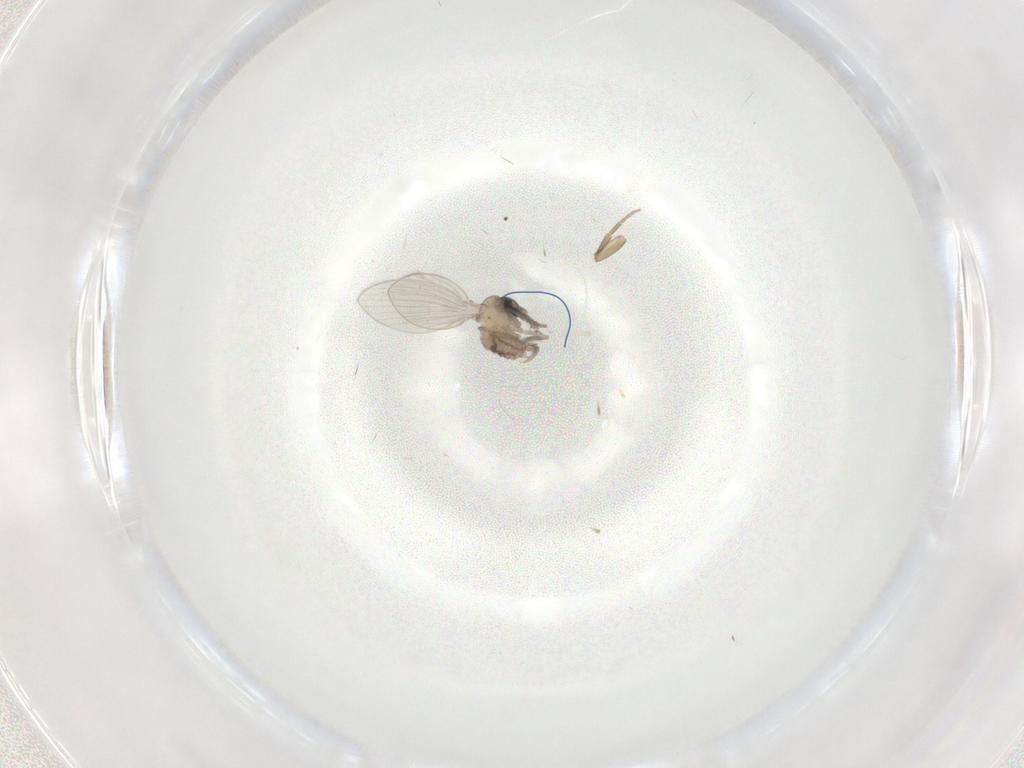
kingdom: Animalia
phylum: Arthropoda
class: Insecta
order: Diptera
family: Psychodidae
